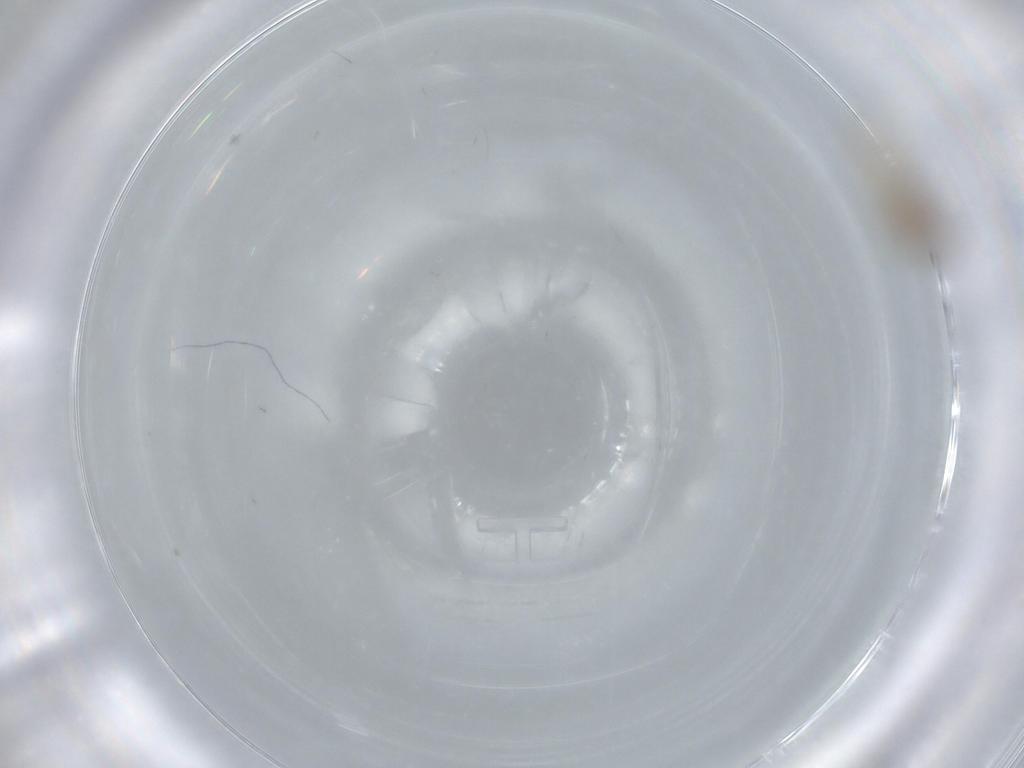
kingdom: Animalia
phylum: Arthropoda
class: Insecta
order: Diptera
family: Cecidomyiidae
